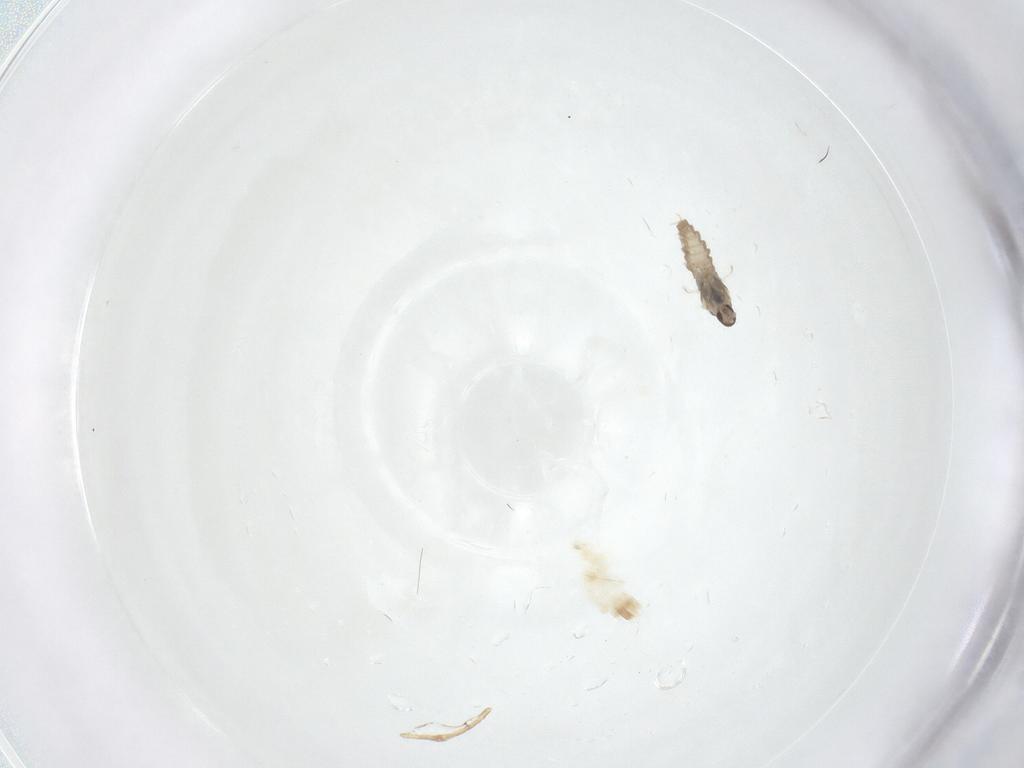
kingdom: Animalia
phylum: Arthropoda
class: Insecta
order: Diptera
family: Cecidomyiidae
